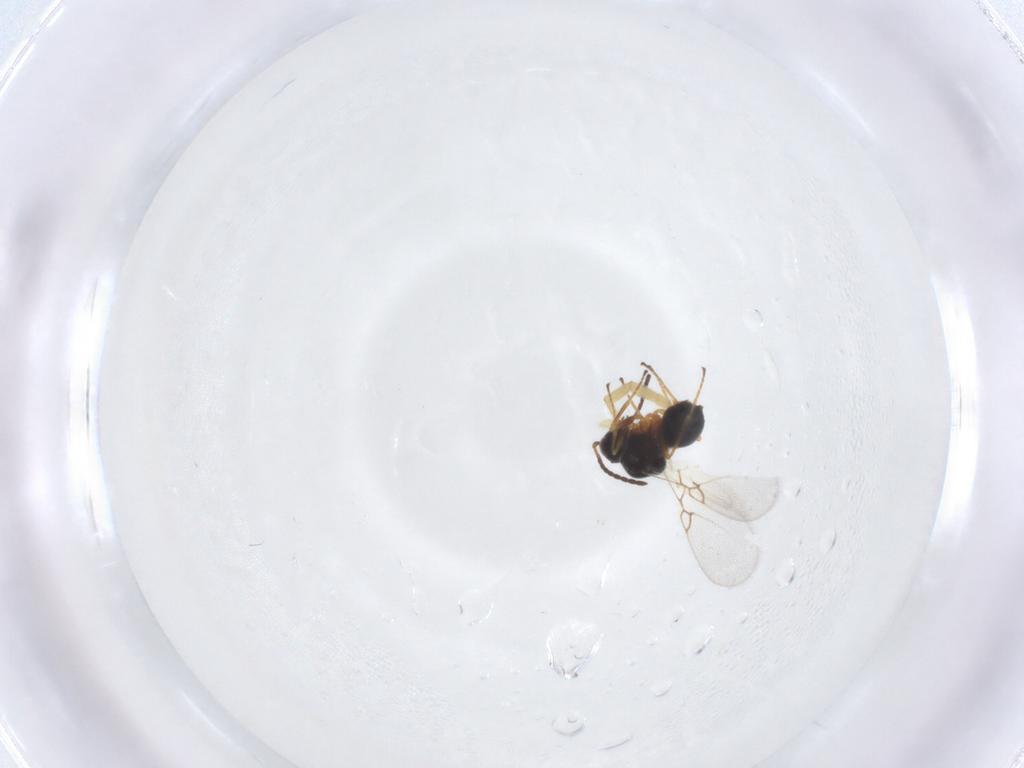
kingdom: Animalia
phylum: Arthropoda
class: Insecta
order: Hymenoptera
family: Figitidae
